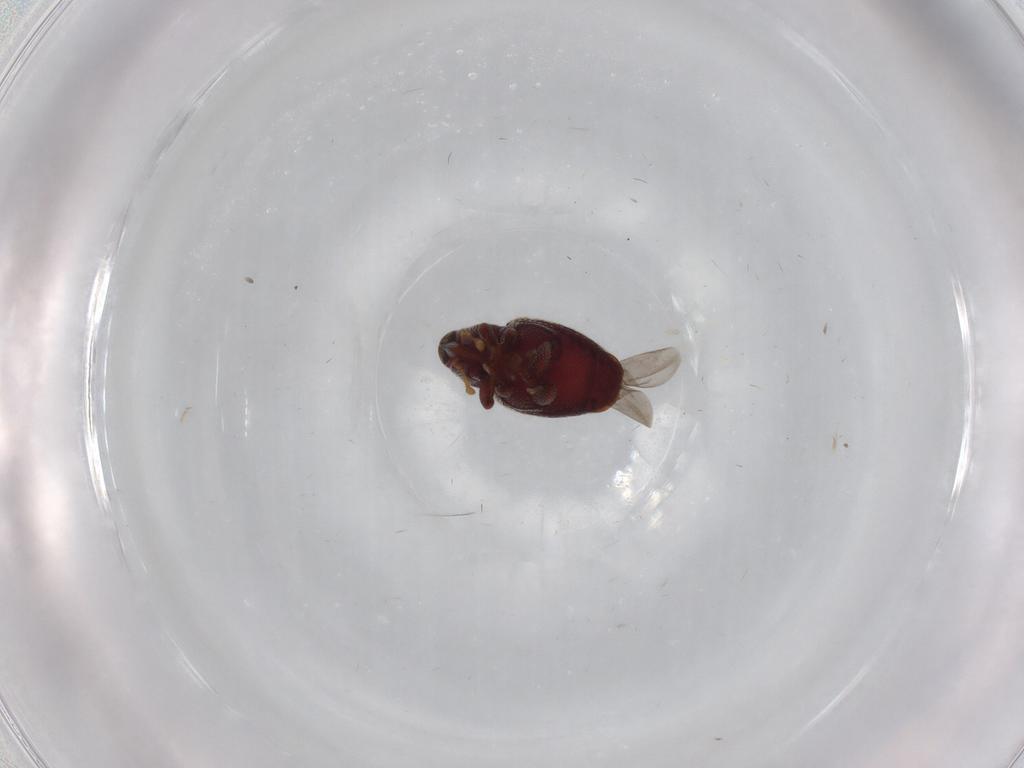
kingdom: Animalia
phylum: Arthropoda
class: Insecta
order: Coleoptera
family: Curculionidae
